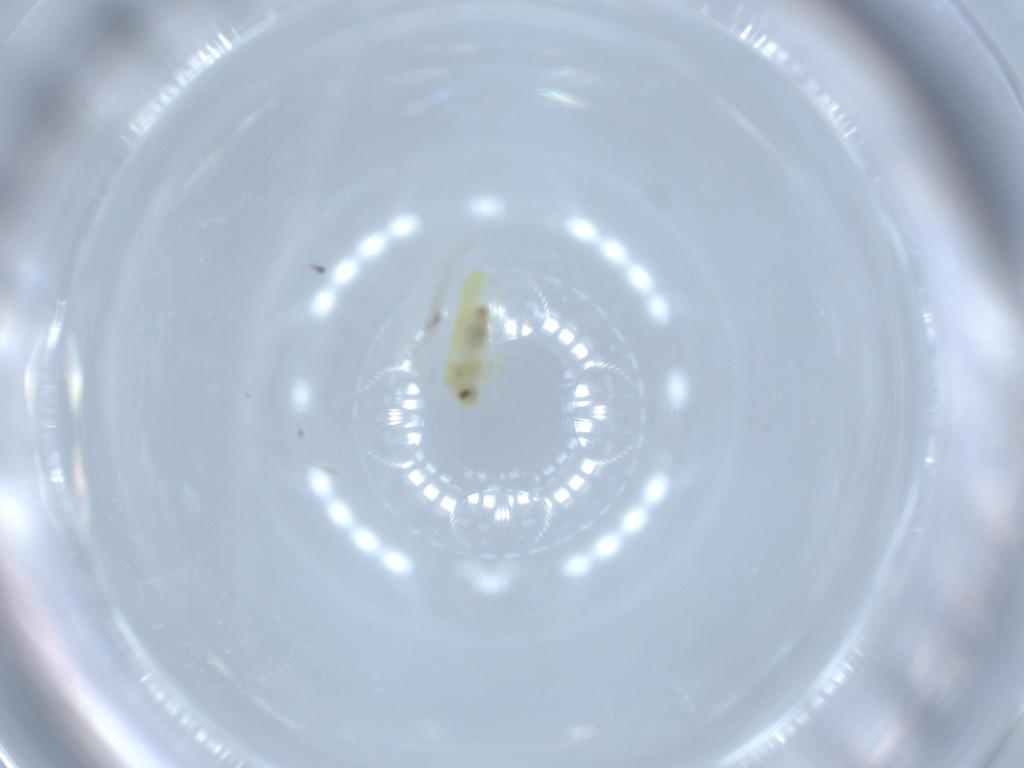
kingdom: Animalia
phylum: Arthropoda
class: Insecta
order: Hemiptera
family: Aleyrodidae
